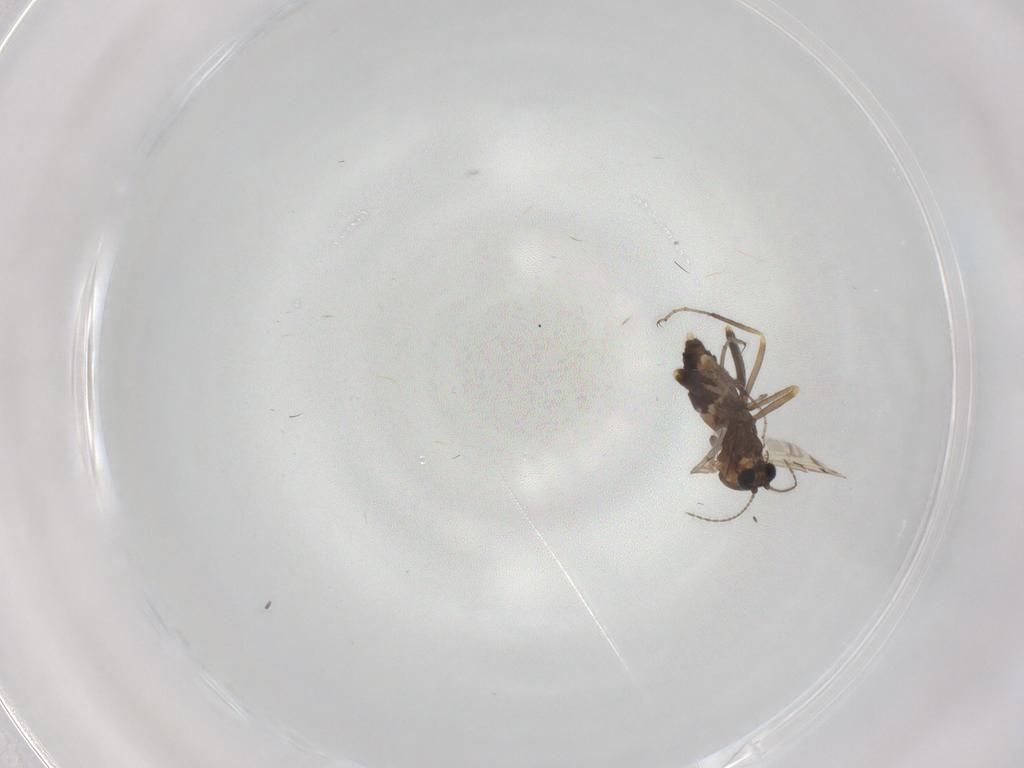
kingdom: Animalia
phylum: Arthropoda
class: Insecta
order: Diptera
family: Ceratopogonidae
